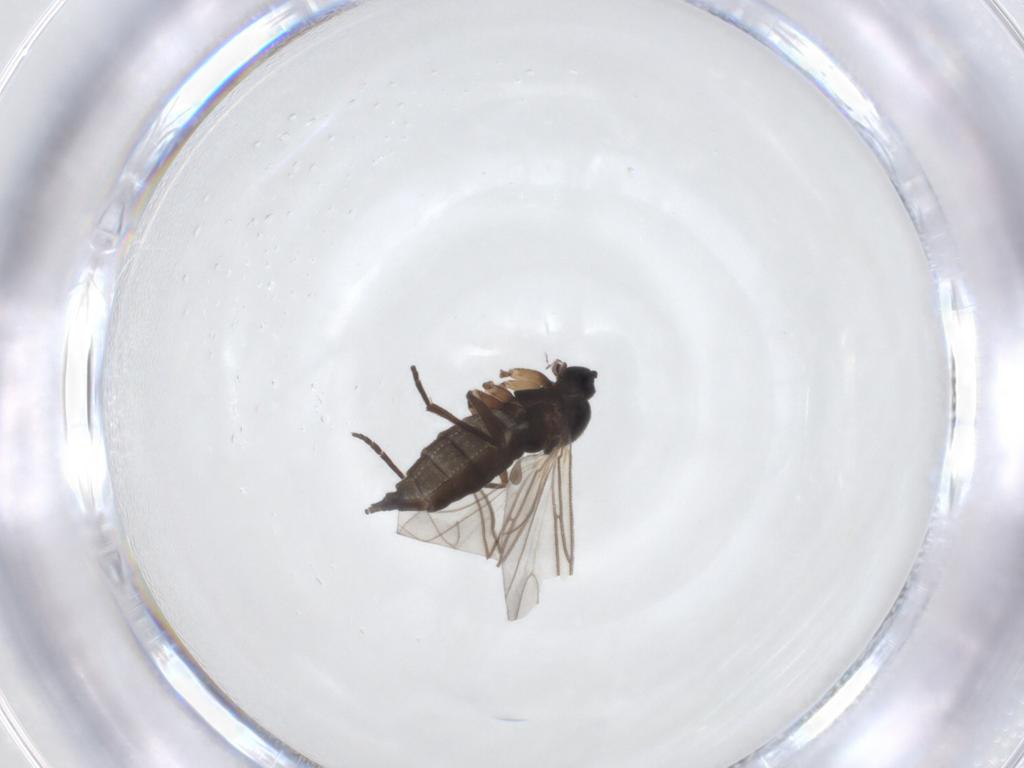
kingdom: Animalia
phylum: Arthropoda
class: Insecta
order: Diptera
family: Sciaridae
